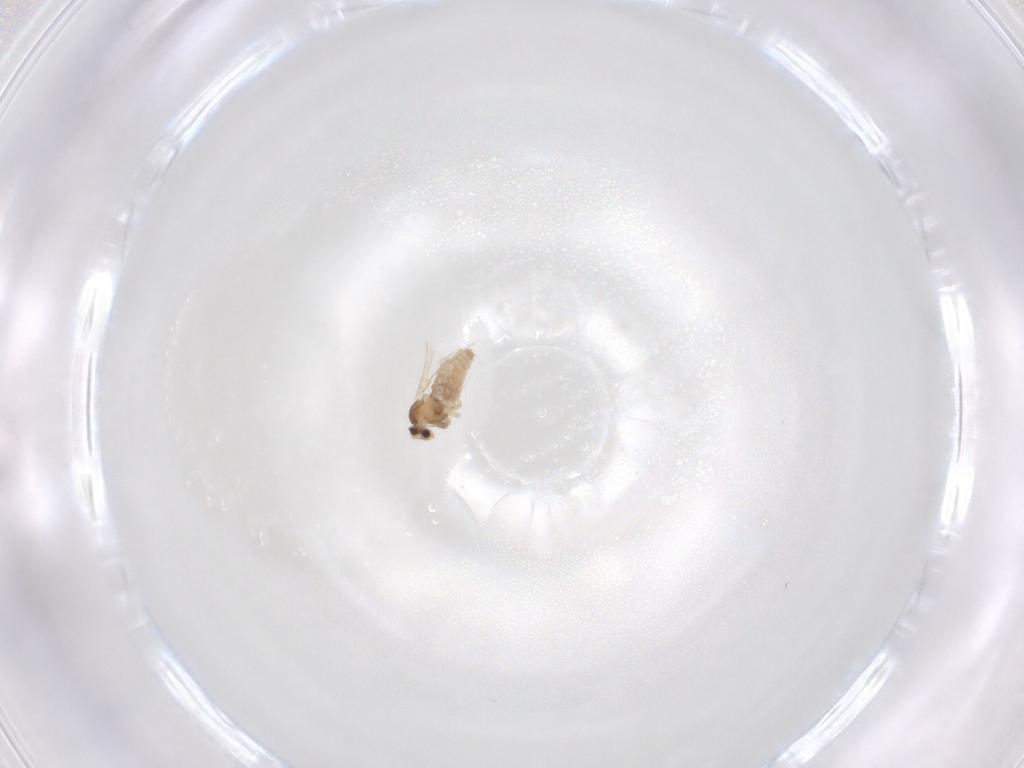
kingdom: Animalia
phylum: Arthropoda
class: Insecta
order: Diptera
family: Cecidomyiidae
